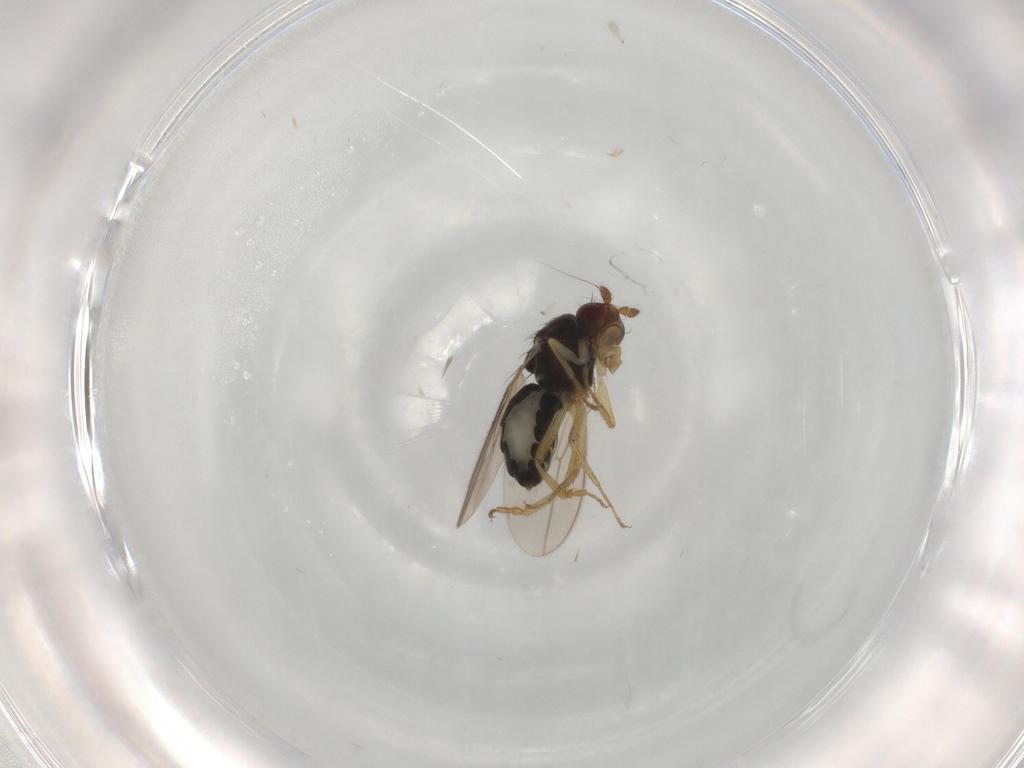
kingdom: Animalia
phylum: Arthropoda
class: Insecta
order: Diptera
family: Sphaeroceridae
